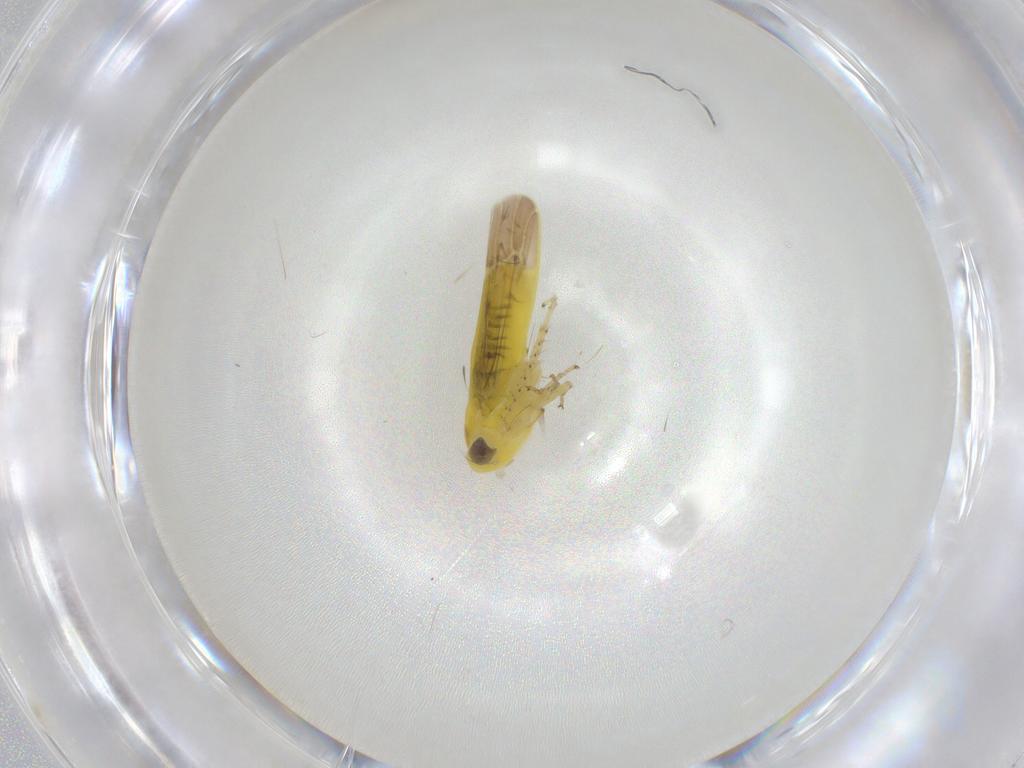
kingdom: Animalia
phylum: Arthropoda
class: Insecta
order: Hemiptera
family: Cicadellidae
